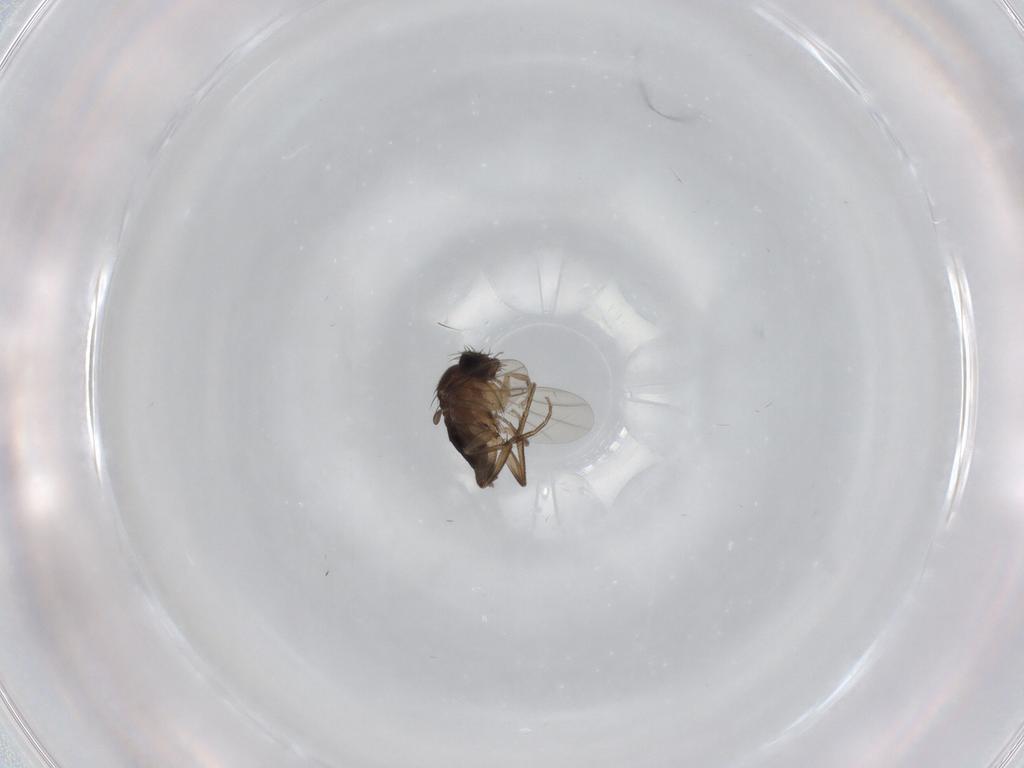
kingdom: Animalia
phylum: Arthropoda
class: Insecta
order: Diptera
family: Phoridae
